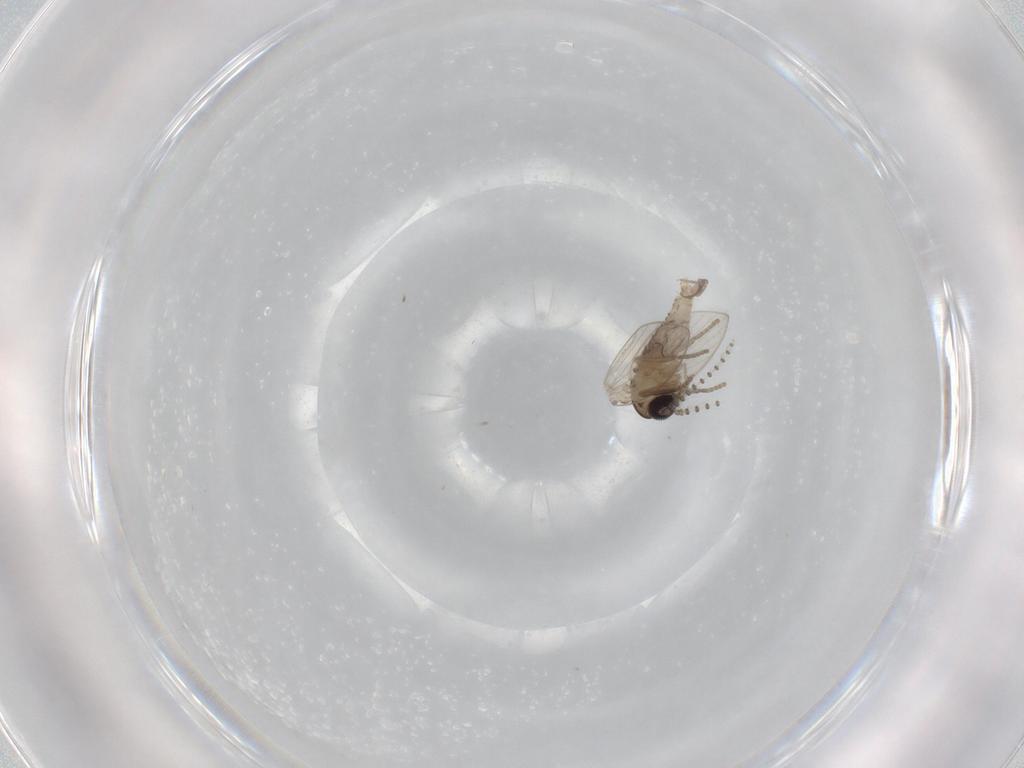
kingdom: Animalia
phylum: Arthropoda
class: Insecta
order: Diptera
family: Psychodidae
